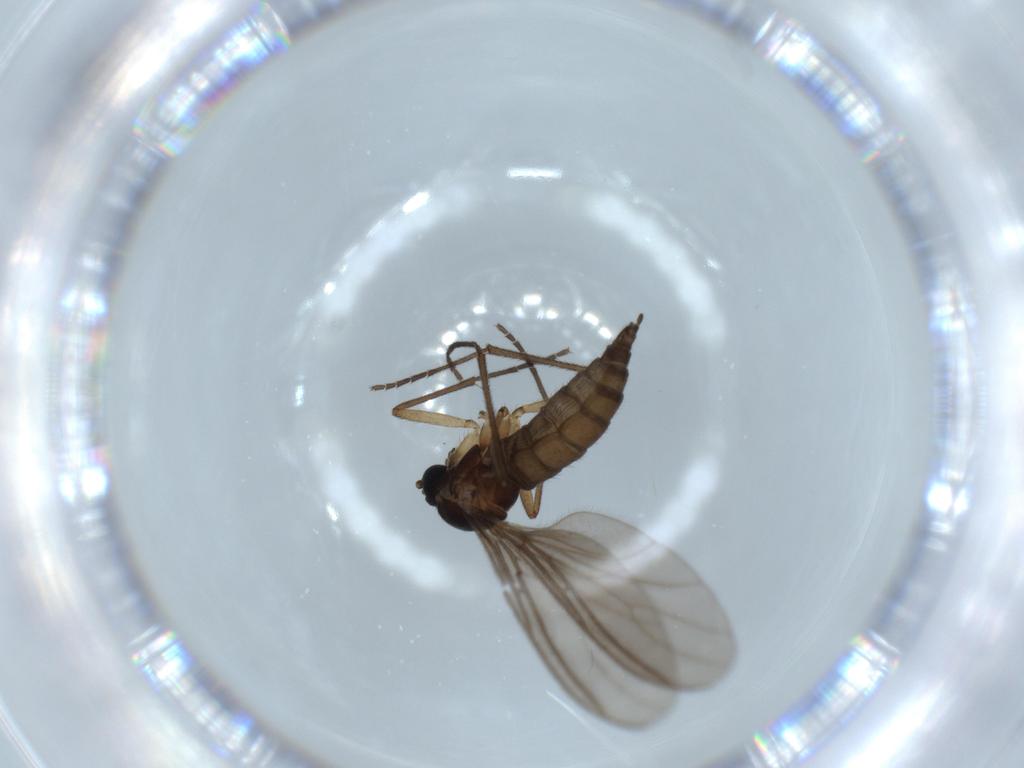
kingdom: Animalia
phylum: Arthropoda
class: Insecta
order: Diptera
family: Sciaridae
